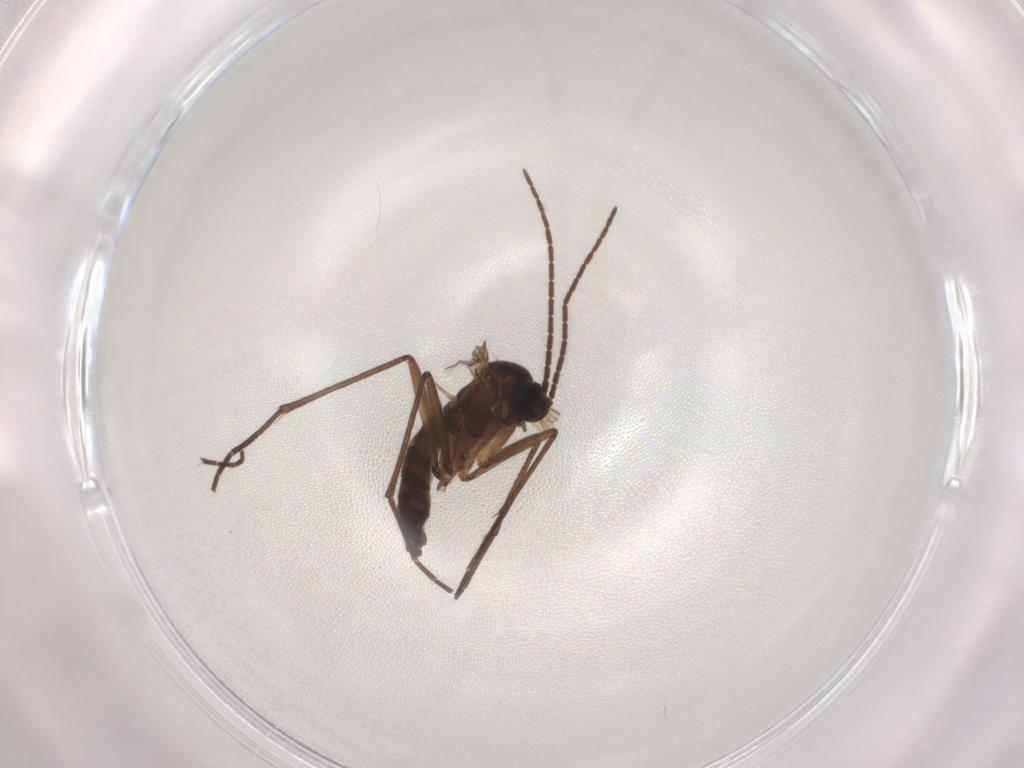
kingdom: Animalia
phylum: Arthropoda
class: Insecta
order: Diptera
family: Sciaridae
